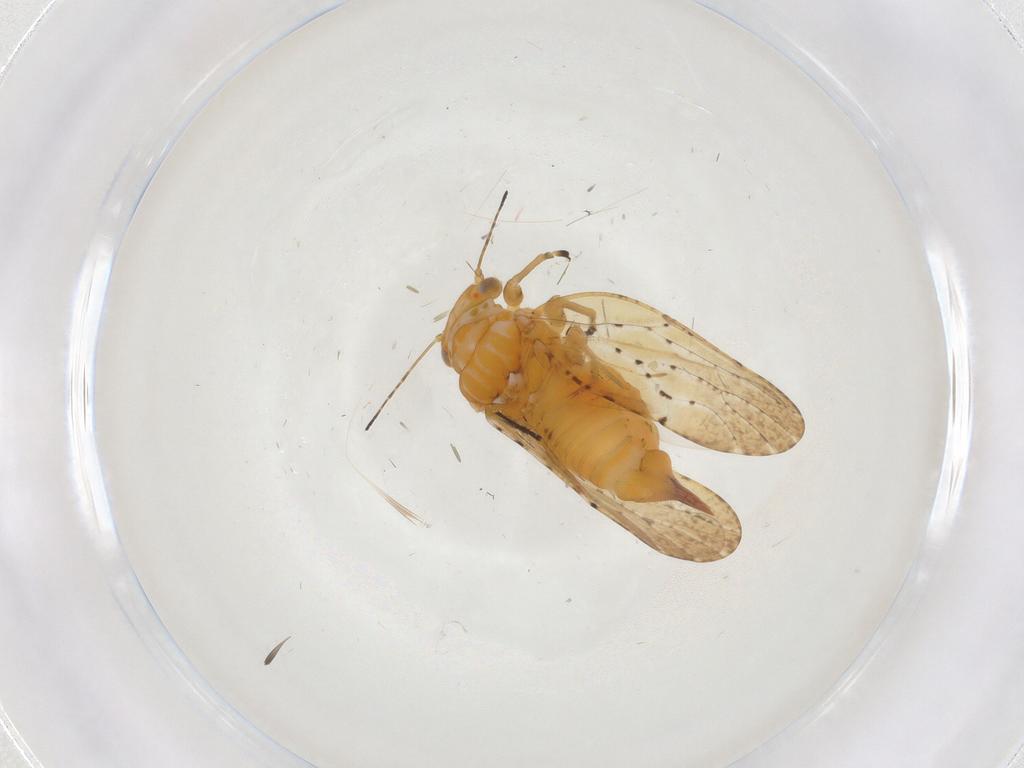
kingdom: Animalia
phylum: Arthropoda
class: Insecta
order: Hemiptera
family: Liviidae
